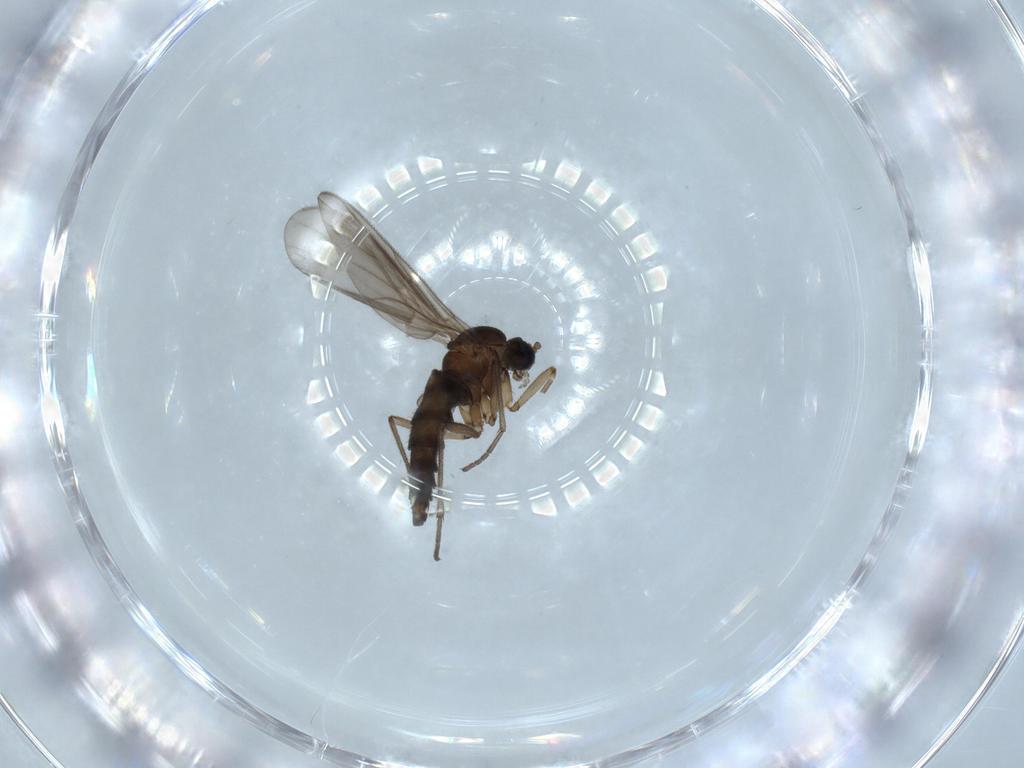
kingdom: Animalia
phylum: Arthropoda
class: Insecta
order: Diptera
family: Sciaridae
